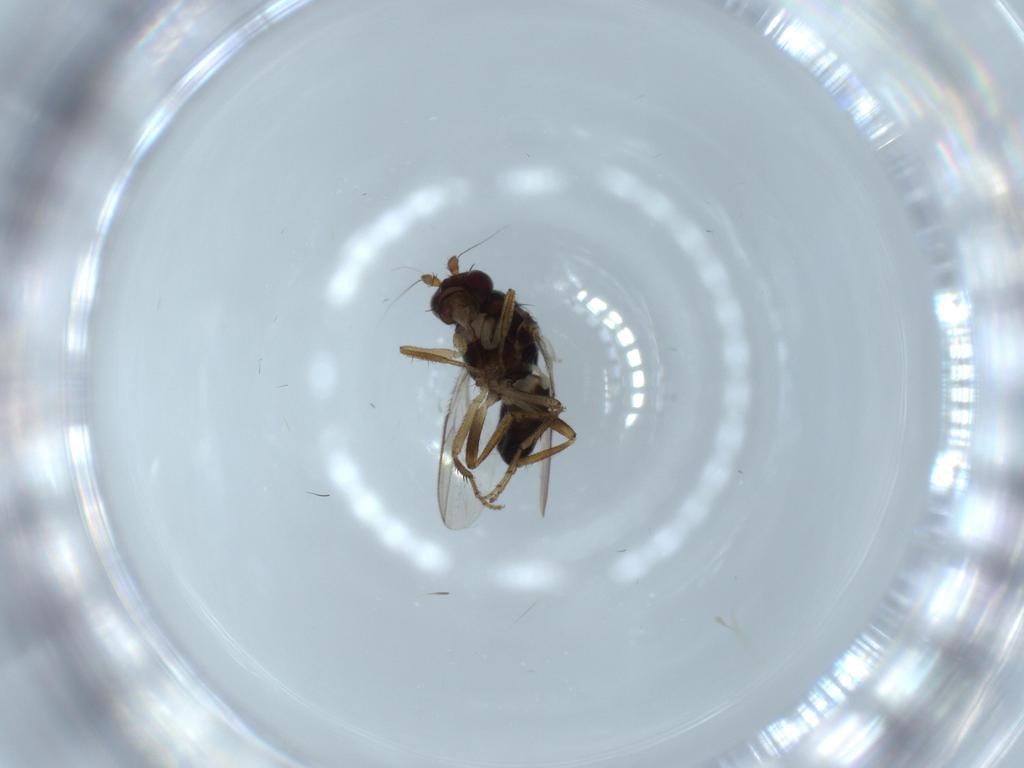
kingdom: Animalia
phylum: Arthropoda
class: Insecta
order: Diptera
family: Sphaeroceridae
